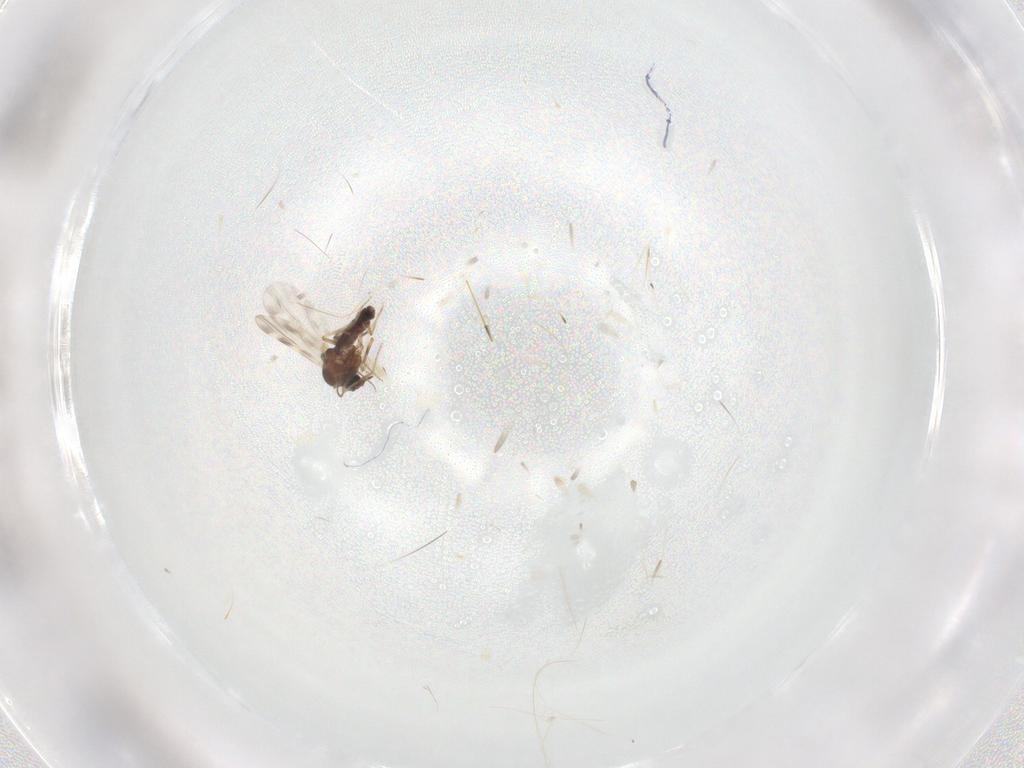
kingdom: Animalia
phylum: Arthropoda
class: Insecta
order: Diptera
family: Ceratopogonidae
